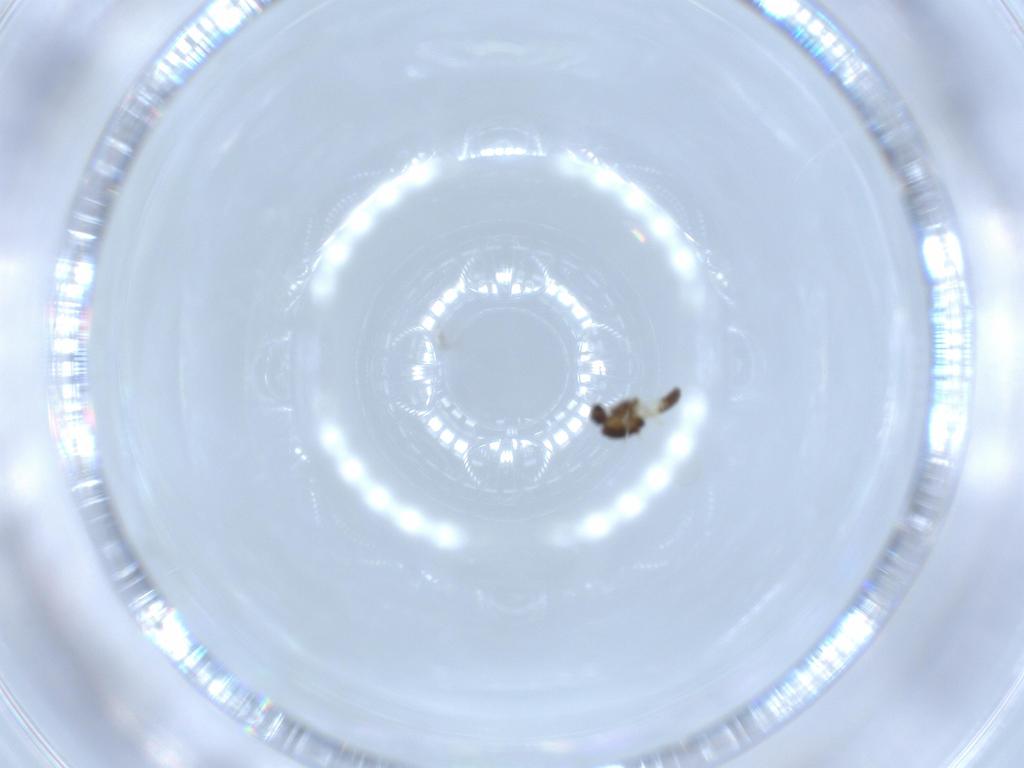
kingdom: Animalia
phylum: Arthropoda
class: Insecta
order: Diptera
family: Chironomidae
